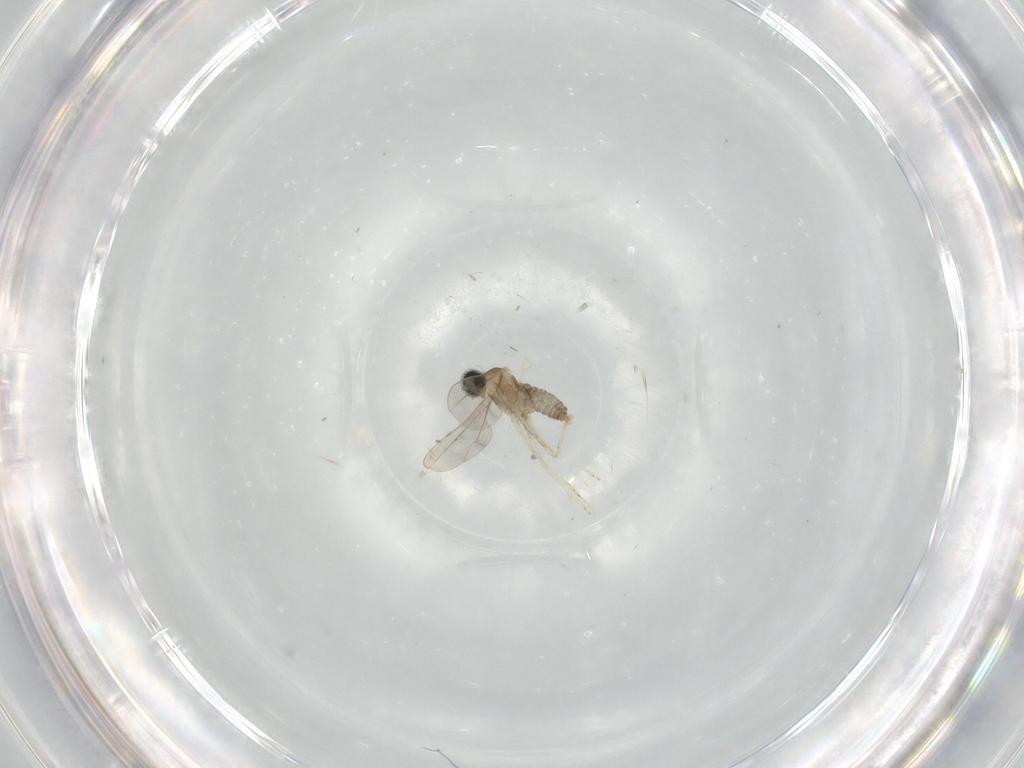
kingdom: Animalia
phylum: Arthropoda
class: Insecta
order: Diptera
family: Cecidomyiidae
